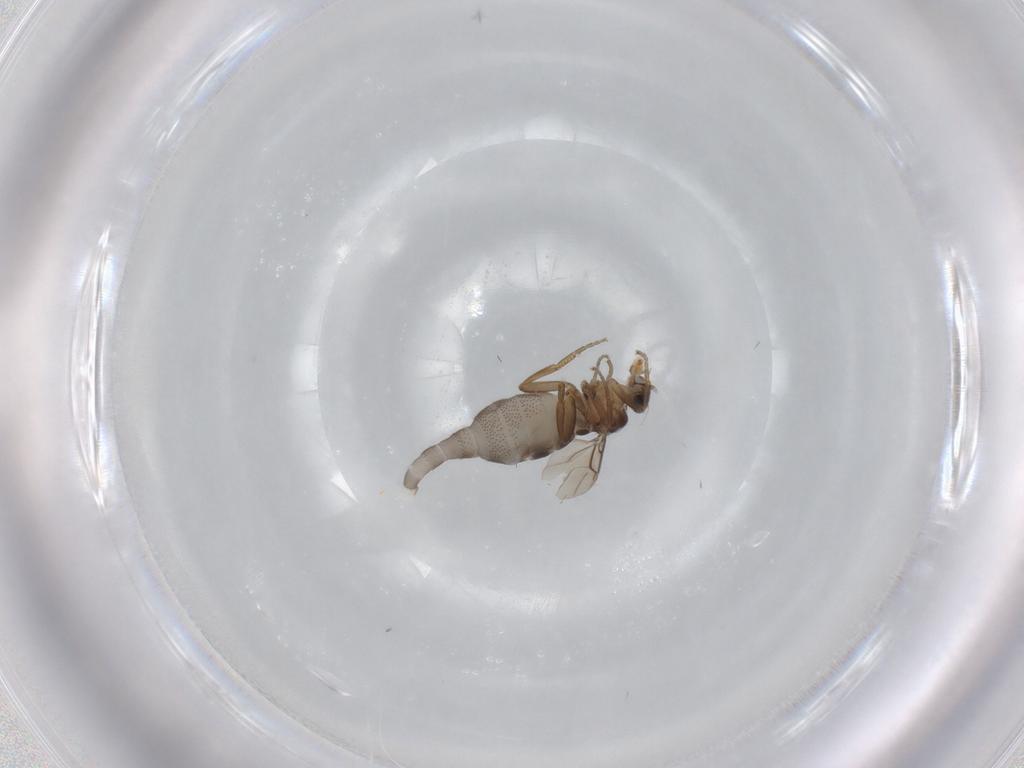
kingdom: Animalia
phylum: Arthropoda
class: Insecta
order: Diptera
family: Phoridae
